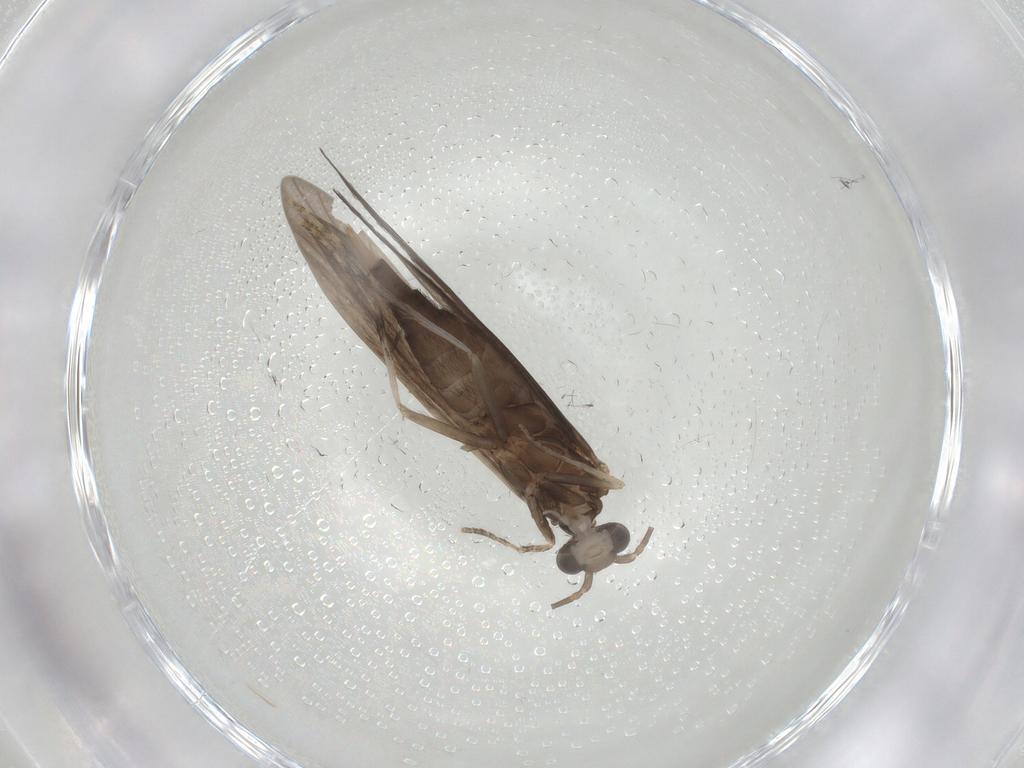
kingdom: Animalia
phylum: Arthropoda
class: Insecta
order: Trichoptera
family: Xiphocentronidae
